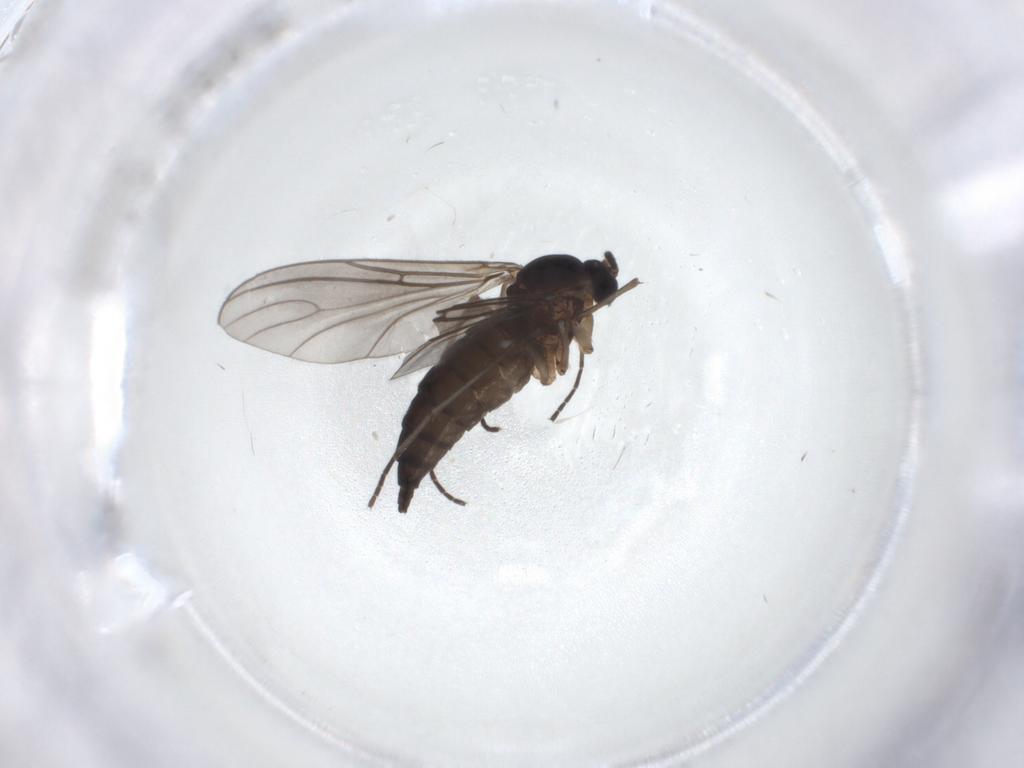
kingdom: Animalia
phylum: Arthropoda
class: Insecta
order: Diptera
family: Sciaridae
